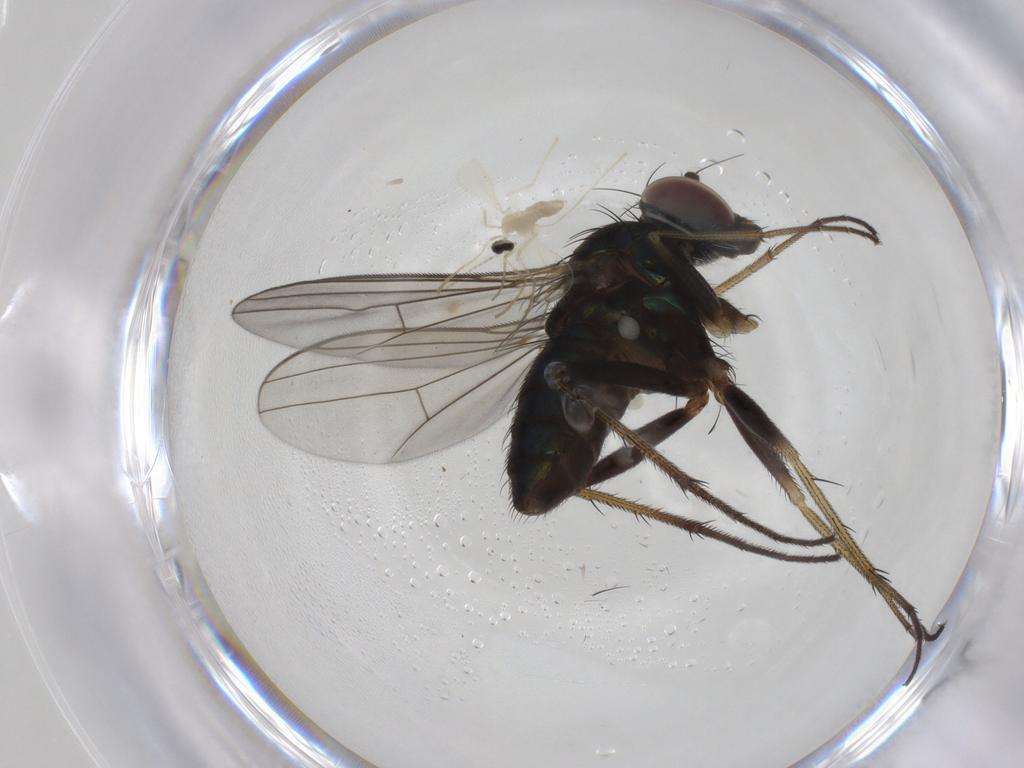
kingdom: Animalia
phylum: Arthropoda
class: Insecta
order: Diptera
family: Dolichopodidae
